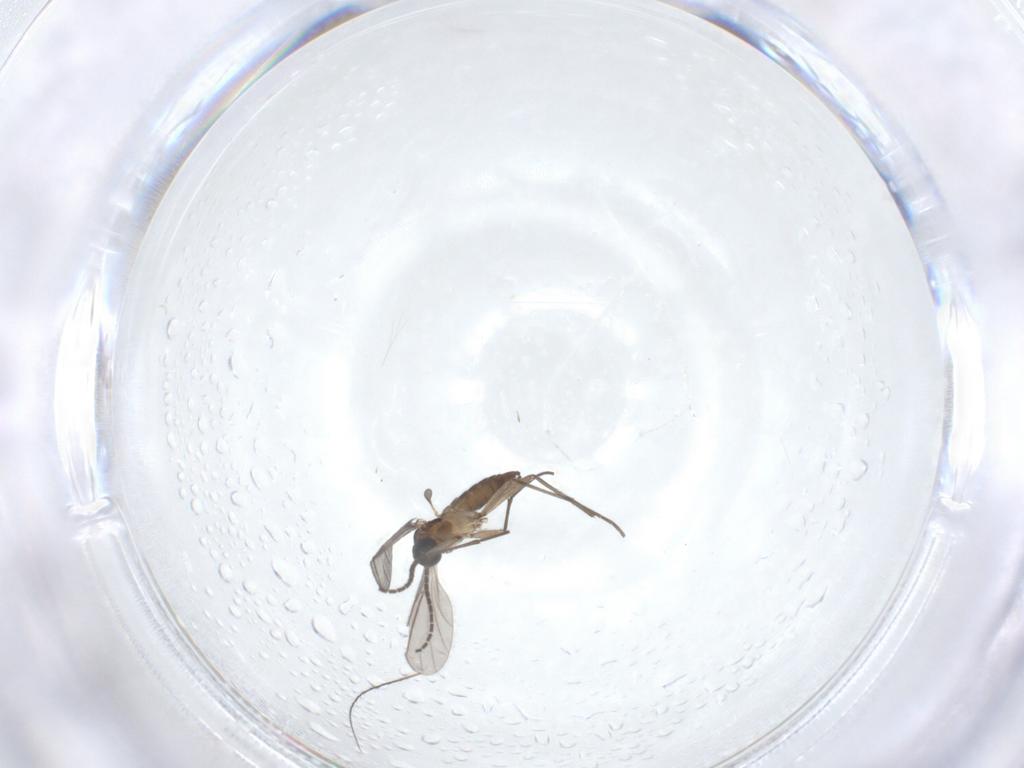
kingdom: Animalia
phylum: Arthropoda
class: Insecta
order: Diptera
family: Sciaridae
